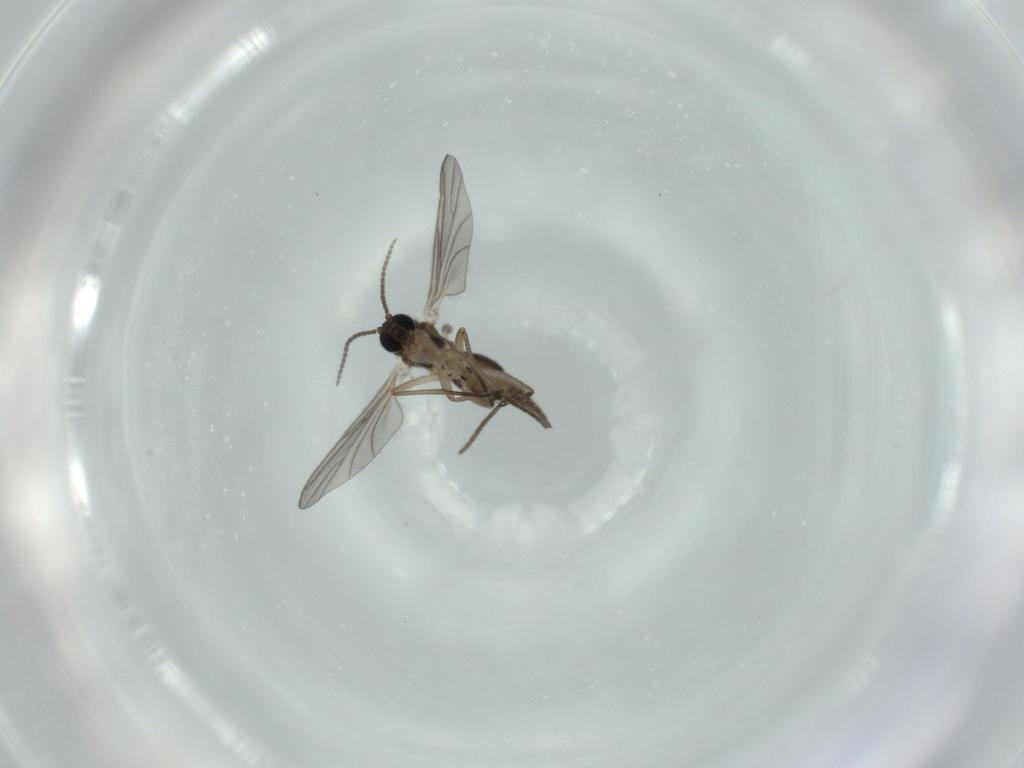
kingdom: Animalia
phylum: Arthropoda
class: Insecta
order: Diptera
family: Sciaridae
